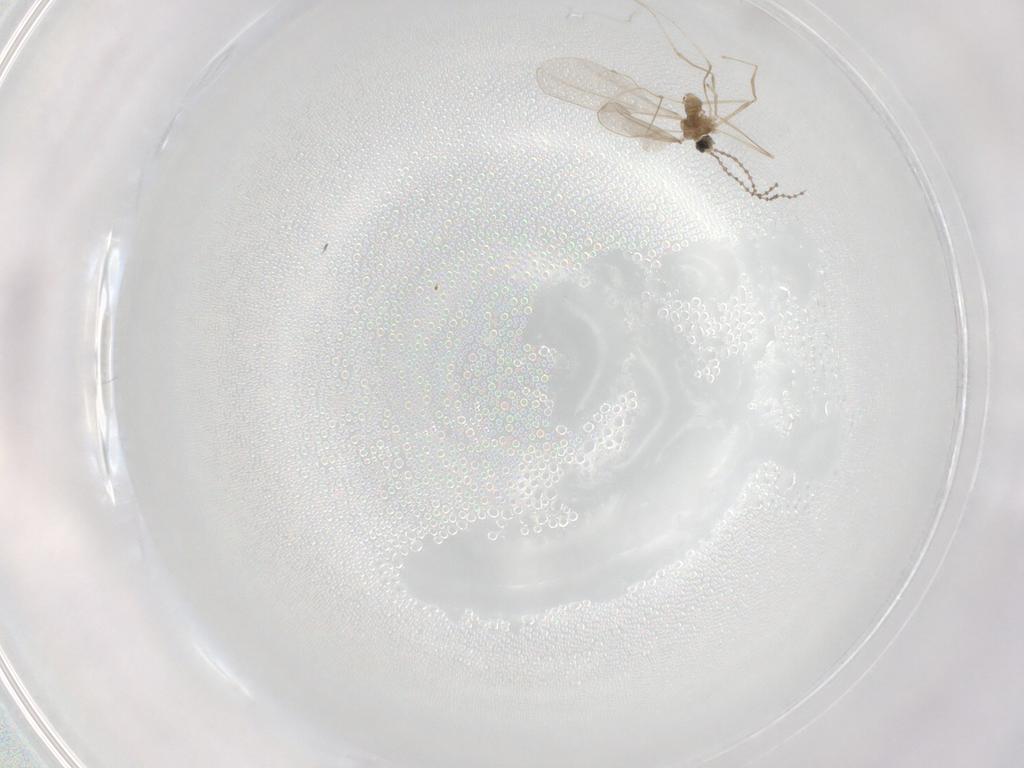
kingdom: Animalia
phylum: Arthropoda
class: Insecta
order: Diptera
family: Cecidomyiidae
